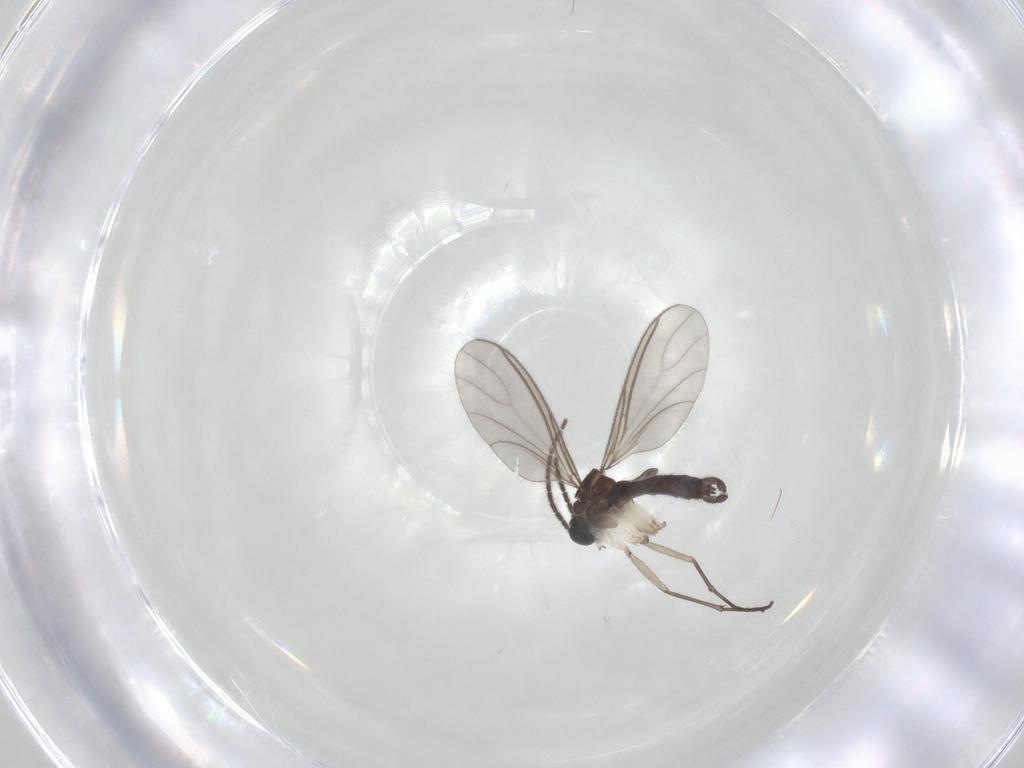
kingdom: Animalia
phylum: Arthropoda
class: Insecta
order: Diptera
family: Sciaridae
